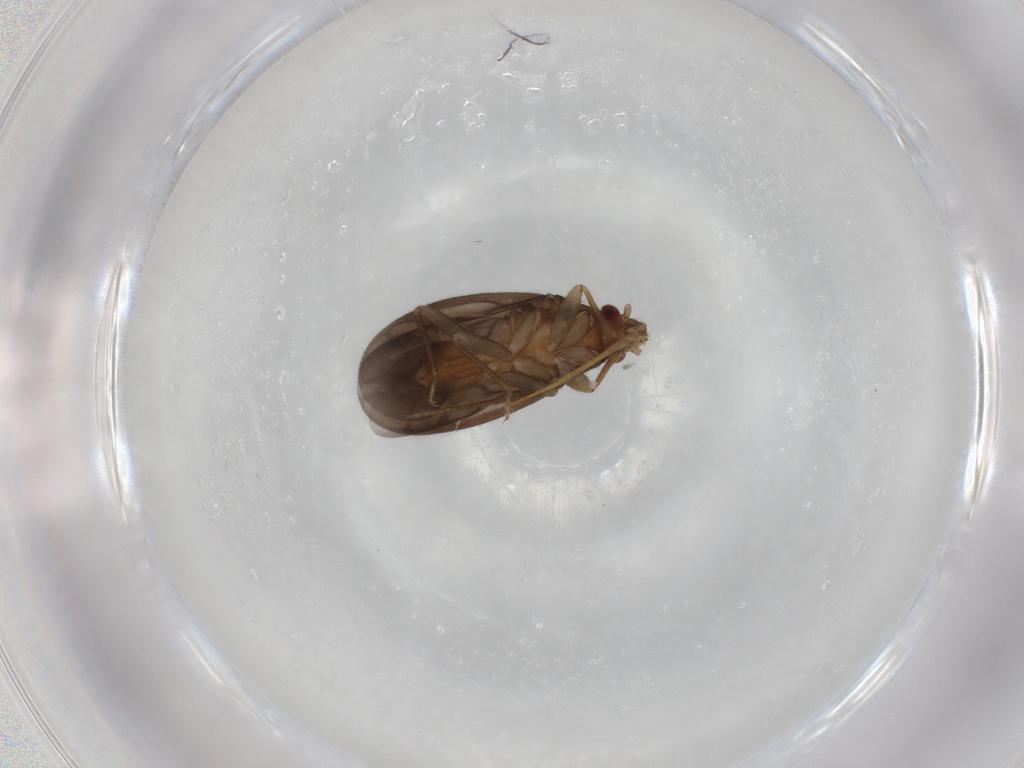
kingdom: Animalia
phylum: Arthropoda
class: Insecta
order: Hemiptera
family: Ceratocombidae
